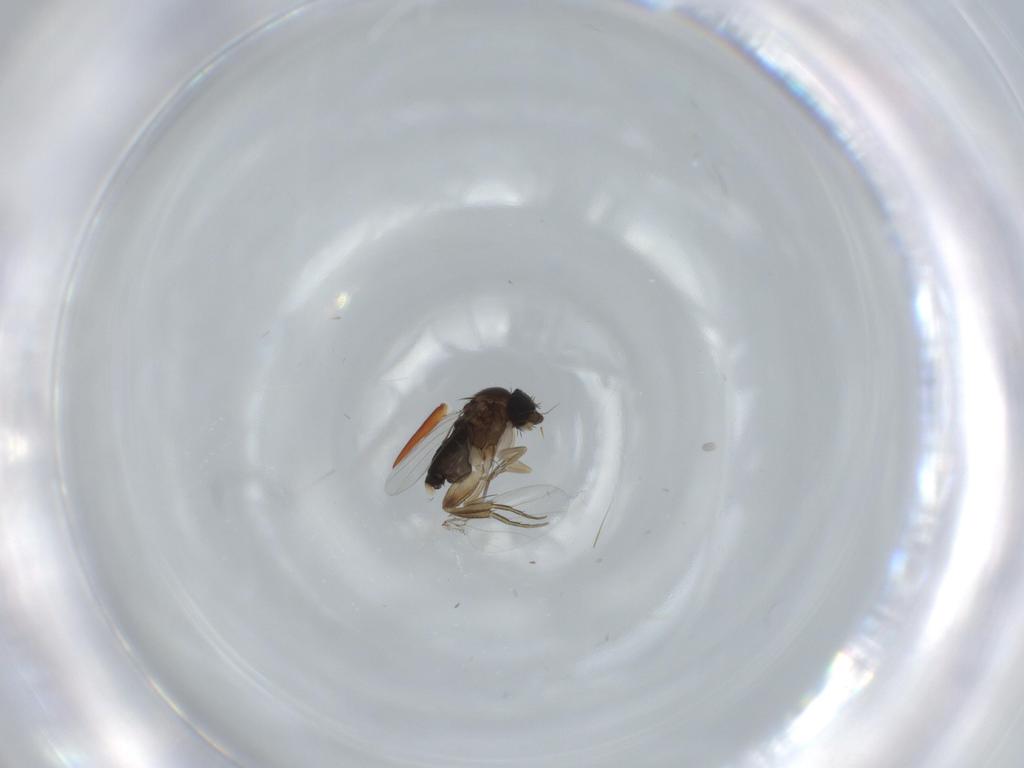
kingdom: Animalia
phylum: Arthropoda
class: Insecta
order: Diptera
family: Phoridae
